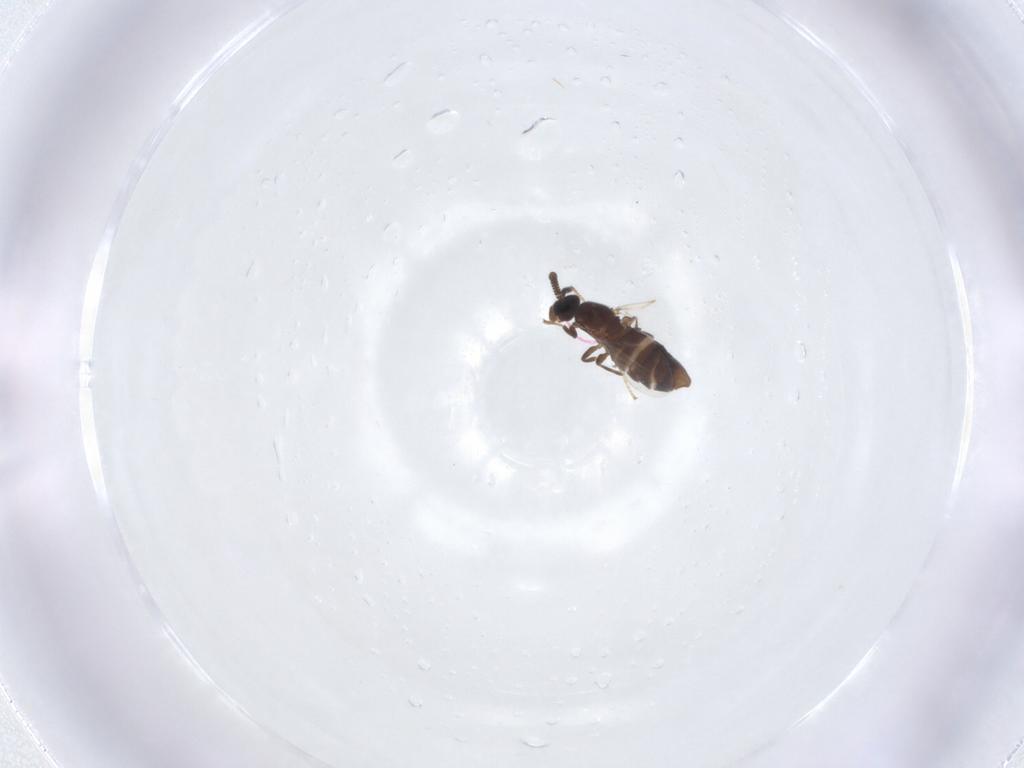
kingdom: Animalia
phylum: Arthropoda
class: Insecta
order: Diptera
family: Scatopsidae
